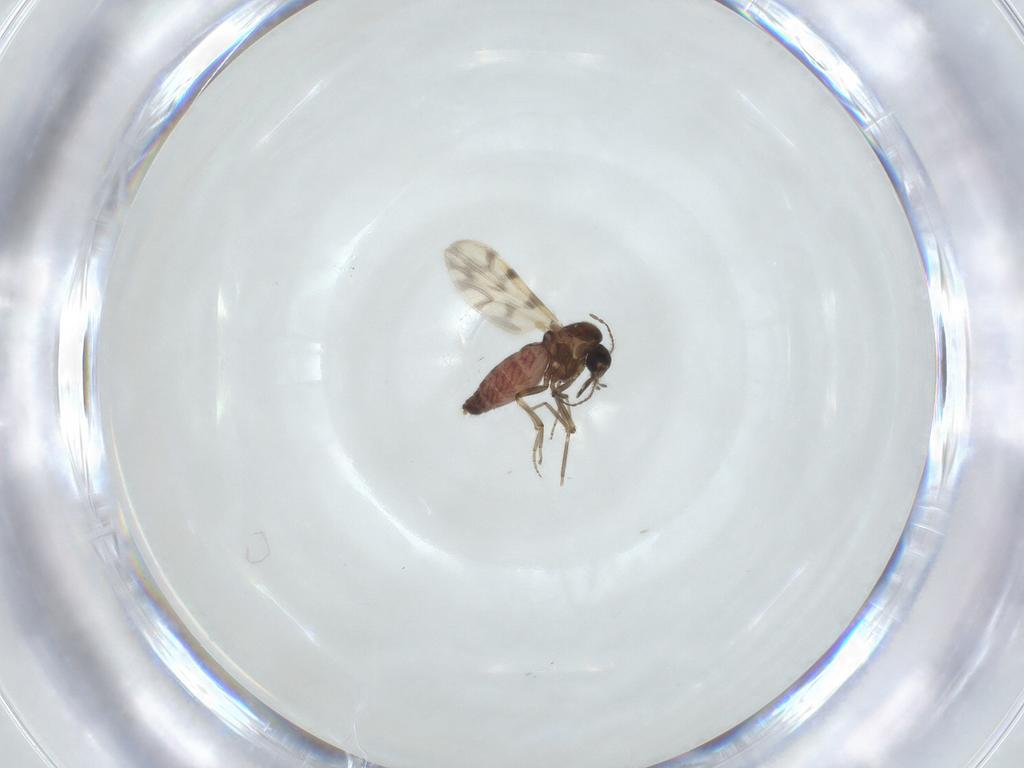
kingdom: Animalia
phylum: Arthropoda
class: Insecta
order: Diptera
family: Ceratopogonidae
